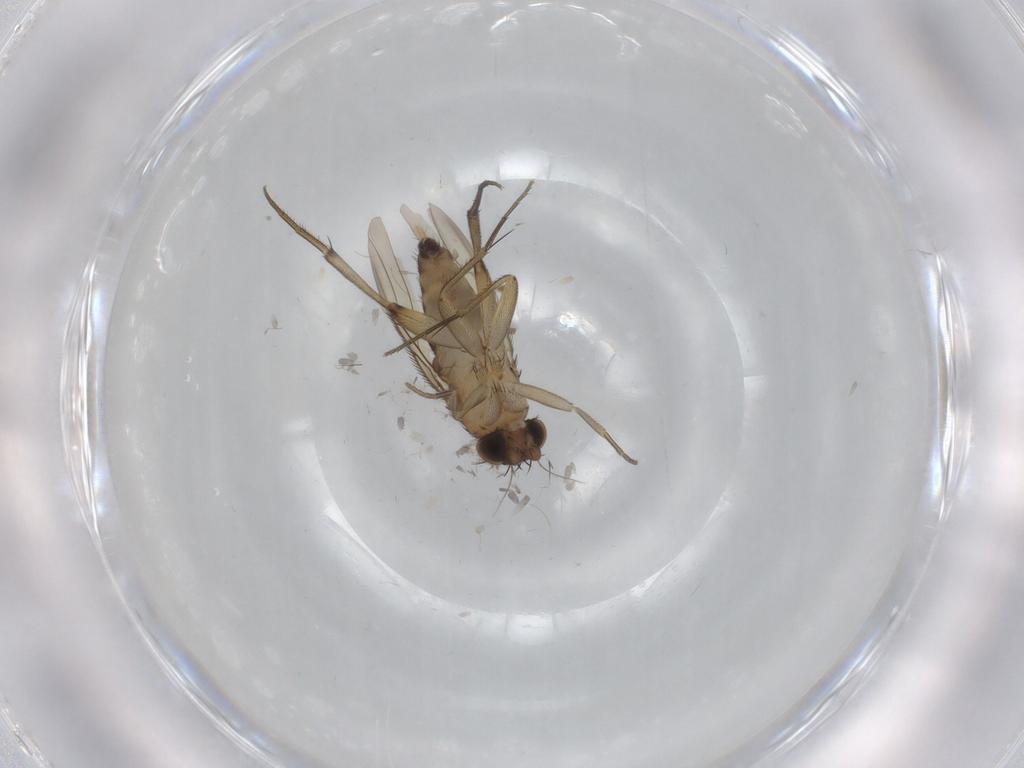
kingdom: Animalia
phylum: Arthropoda
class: Insecta
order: Diptera
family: Phoridae
